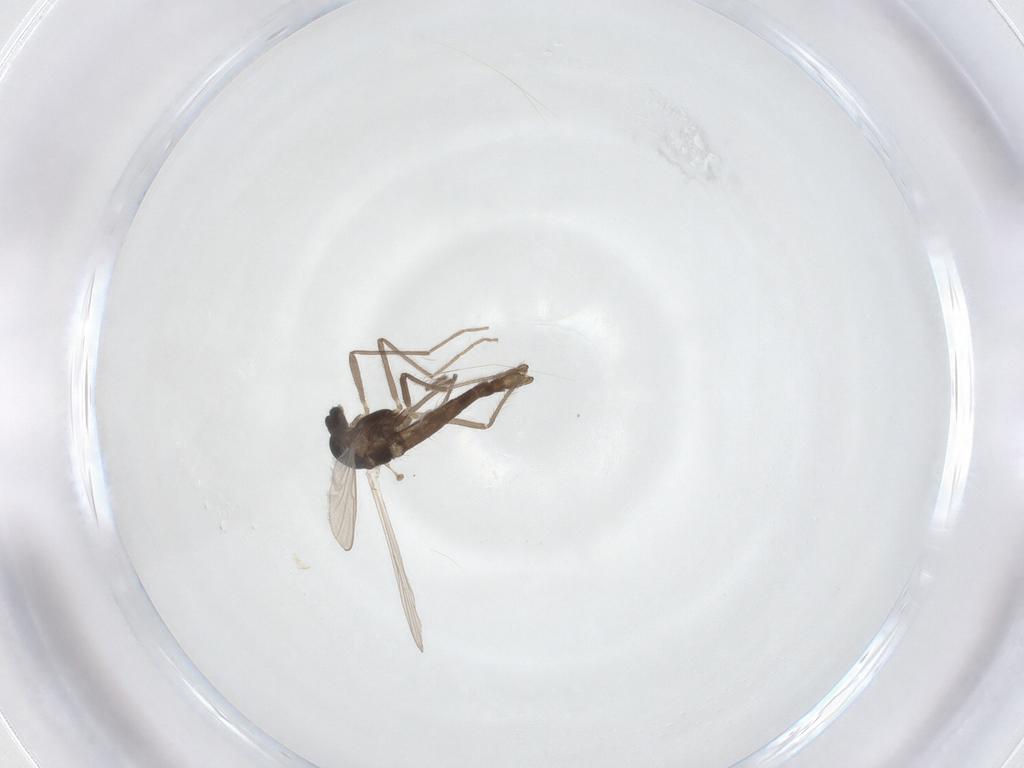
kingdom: Animalia
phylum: Arthropoda
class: Insecta
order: Diptera
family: Chironomidae
